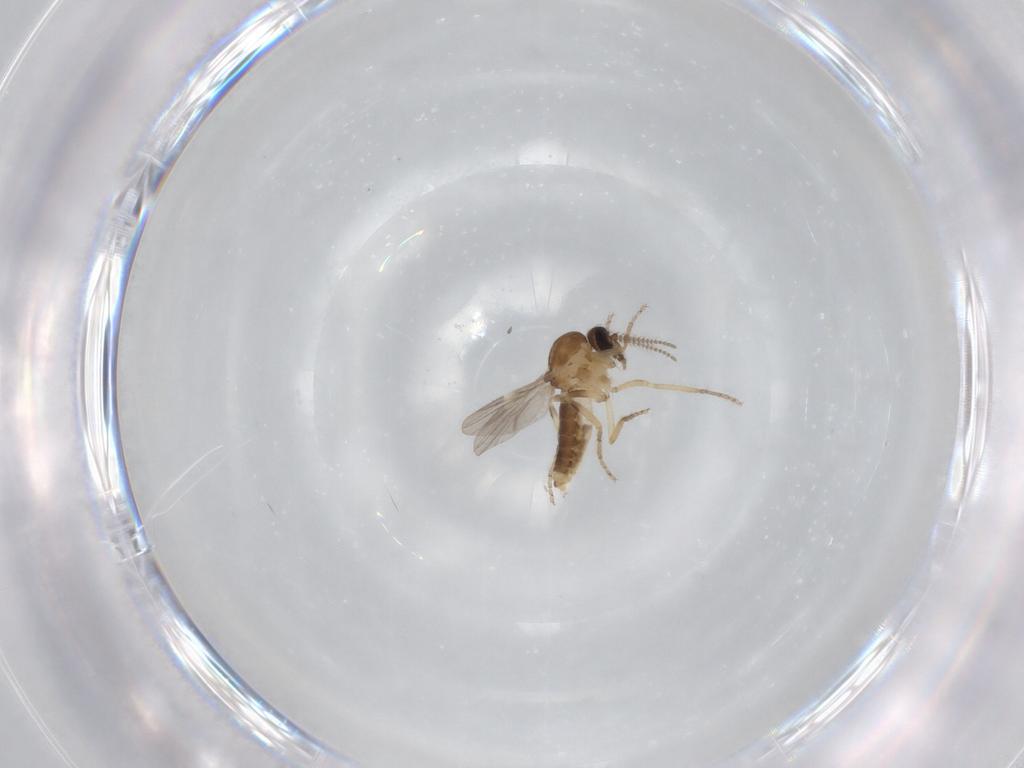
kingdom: Animalia
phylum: Arthropoda
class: Insecta
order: Diptera
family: Ceratopogonidae
